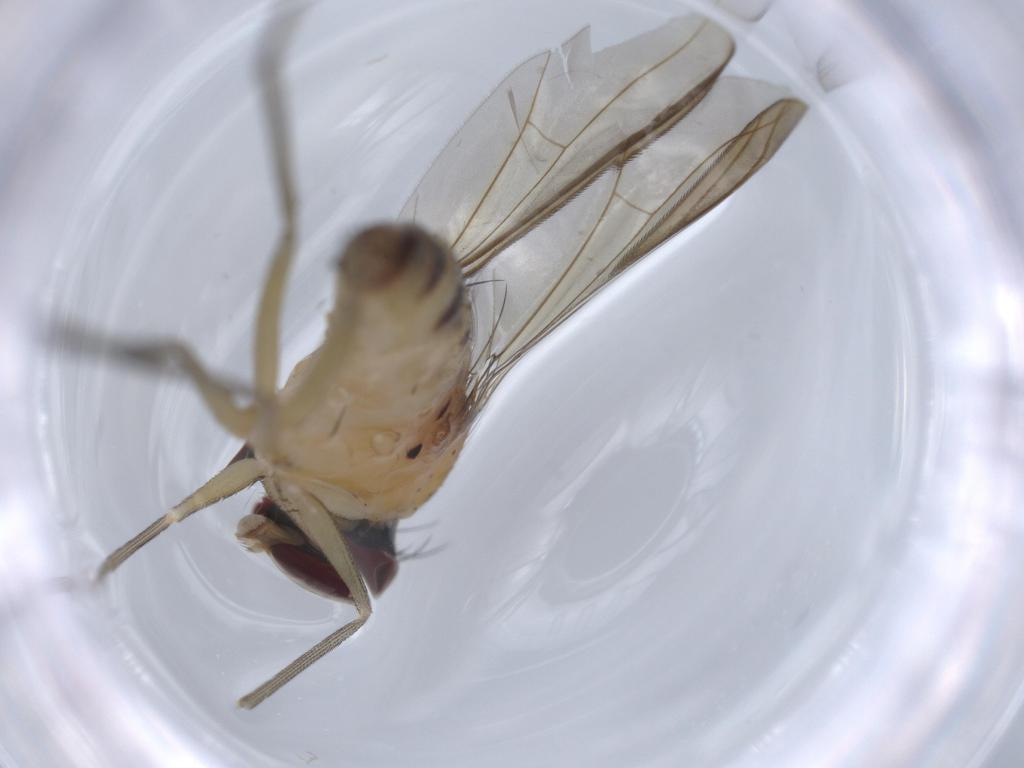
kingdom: Animalia
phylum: Arthropoda
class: Insecta
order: Diptera
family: Dolichopodidae
